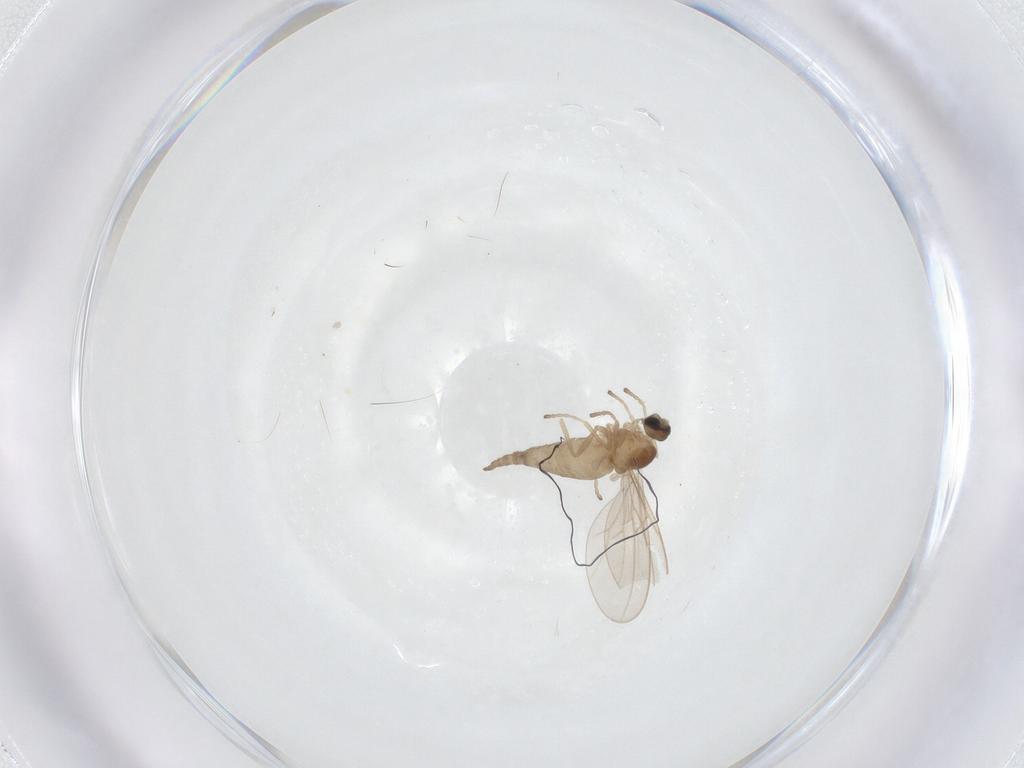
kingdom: Animalia
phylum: Arthropoda
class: Insecta
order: Diptera
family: Cecidomyiidae
